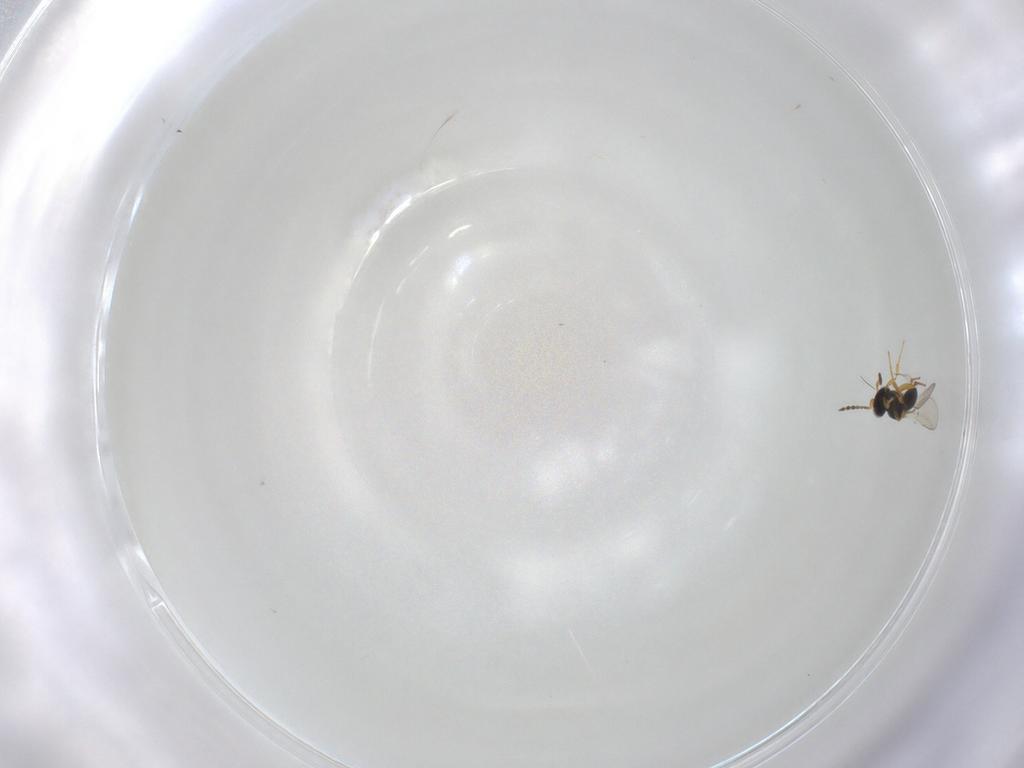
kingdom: Animalia
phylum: Arthropoda
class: Insecta
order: Hymenoptera
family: Platygastridae
